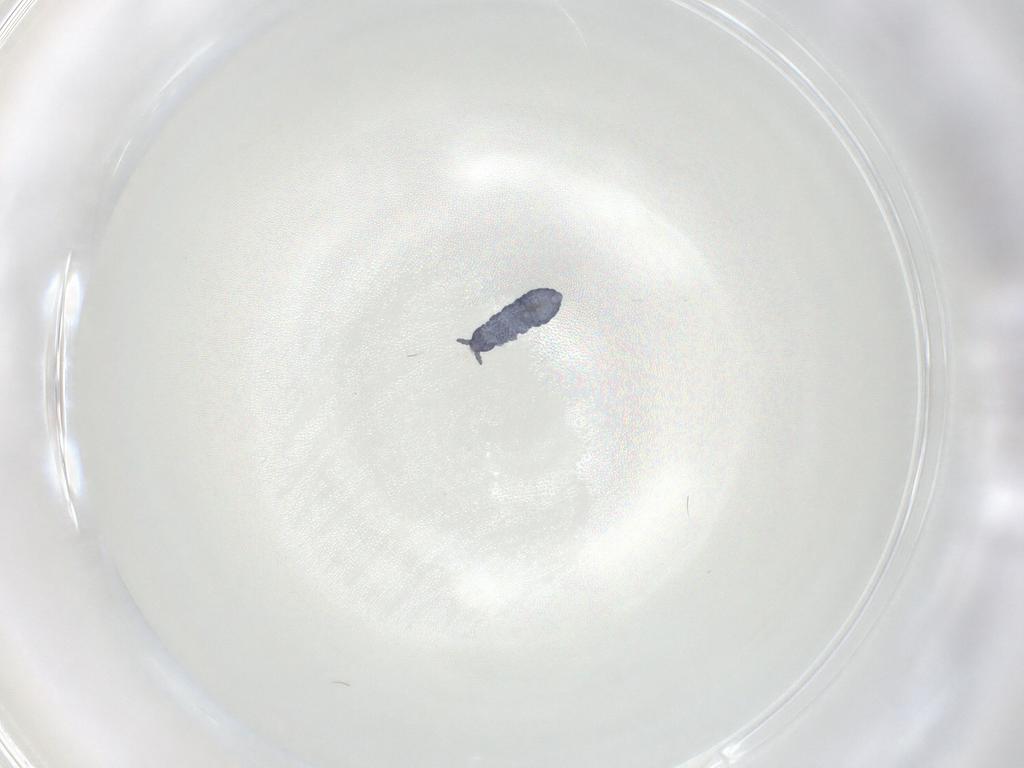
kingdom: Animalia
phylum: Arthropoda
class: Collembola
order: Poduromorpha
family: Hypogastruridae
